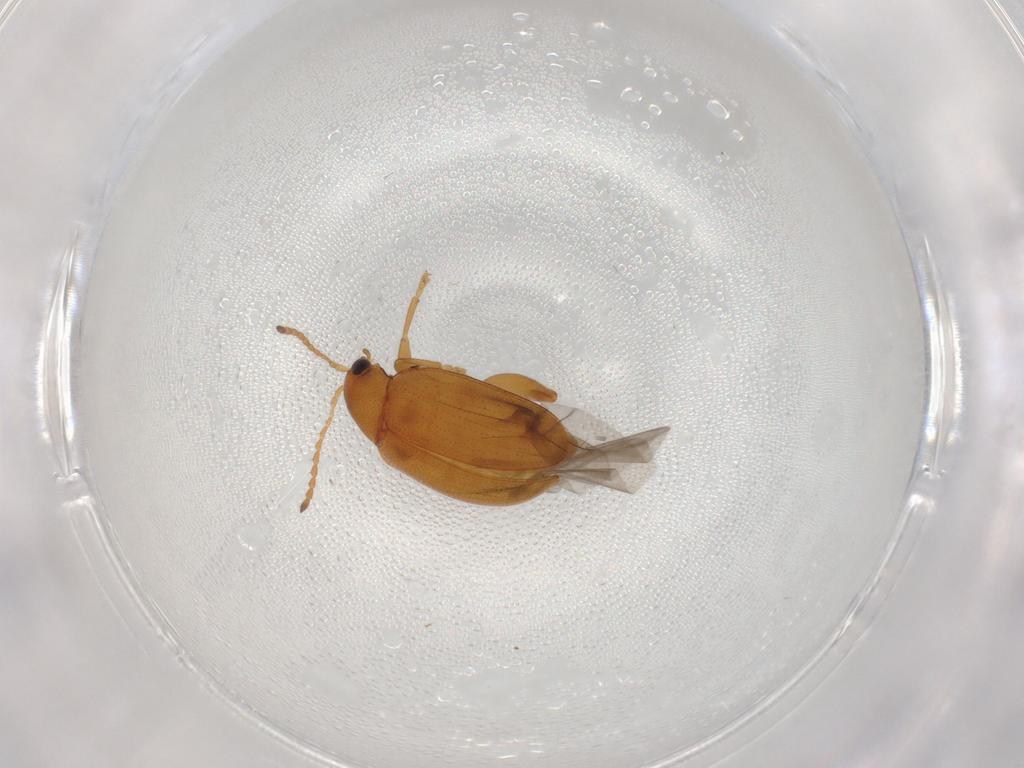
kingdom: Animalia
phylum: Arthropoda
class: Insecta
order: Coleoptera
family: Chrysomelidae
